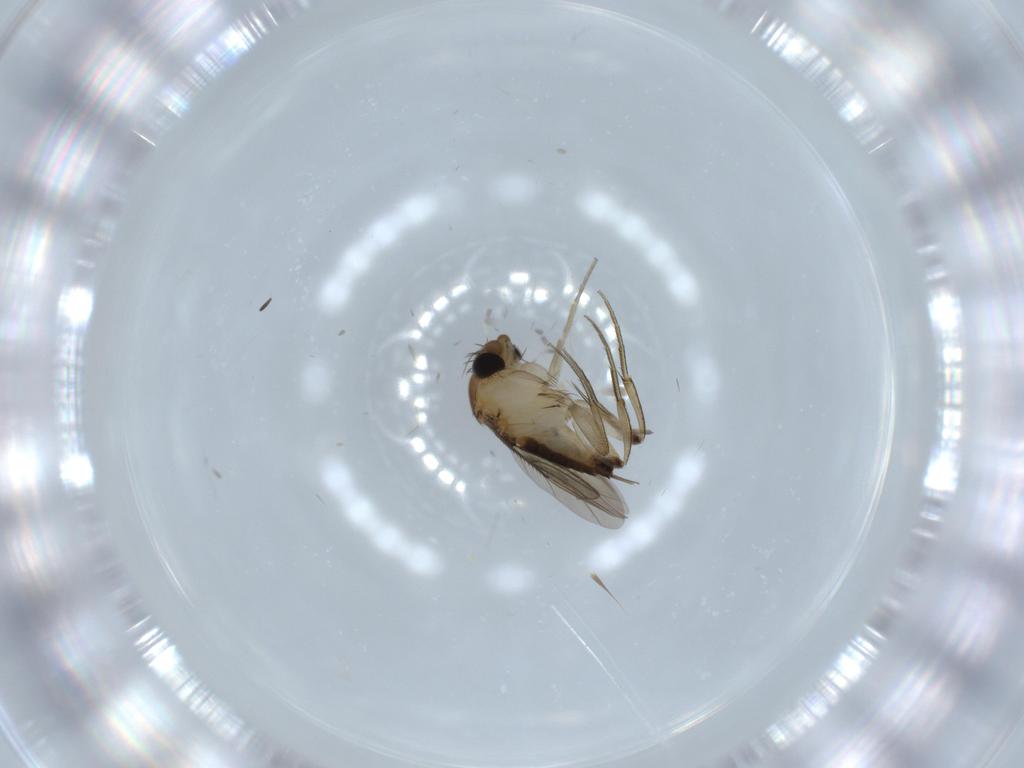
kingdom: Animalia
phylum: Arthropoda
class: Insecta
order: Diptera
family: Phoridae
